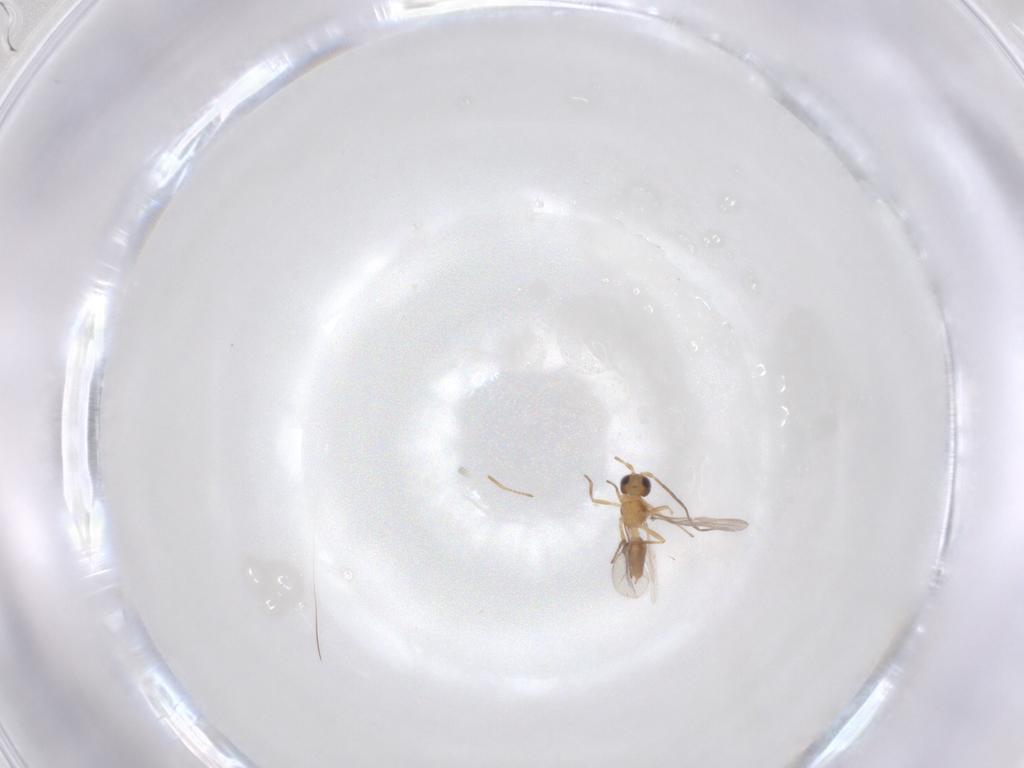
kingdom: Animalia
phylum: Arthropoda
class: Insecta
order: Hymenoptera
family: Braconidae
